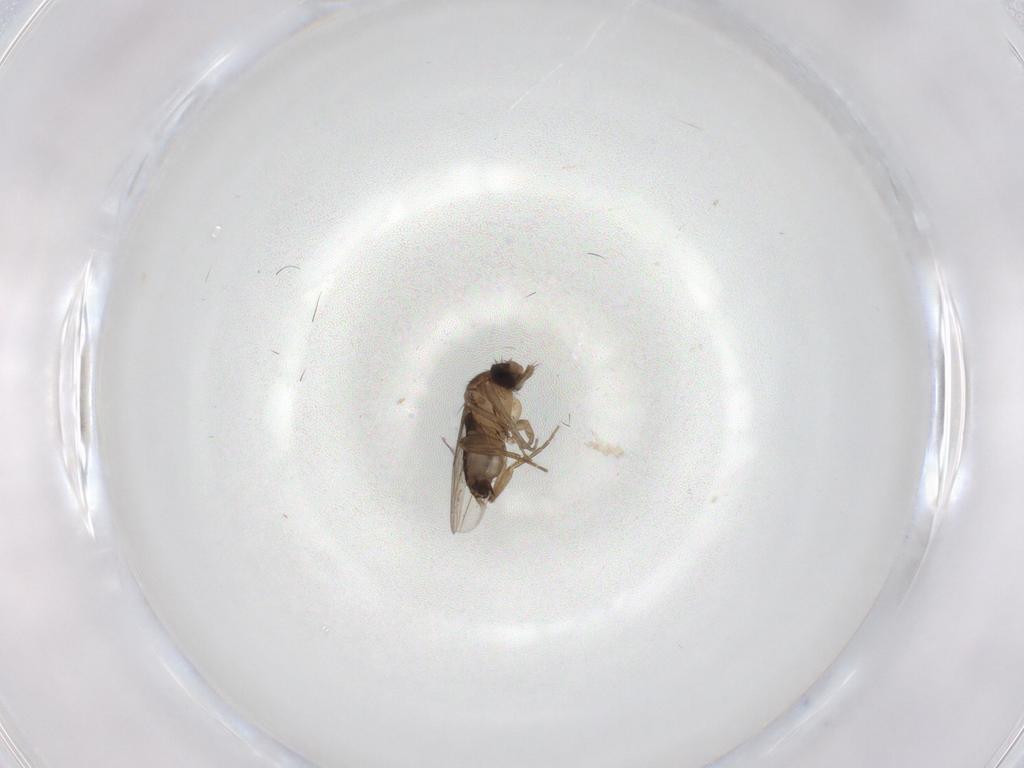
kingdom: Animalia
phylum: Arthropoda
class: Insecta
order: Diptera
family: Phoridae
